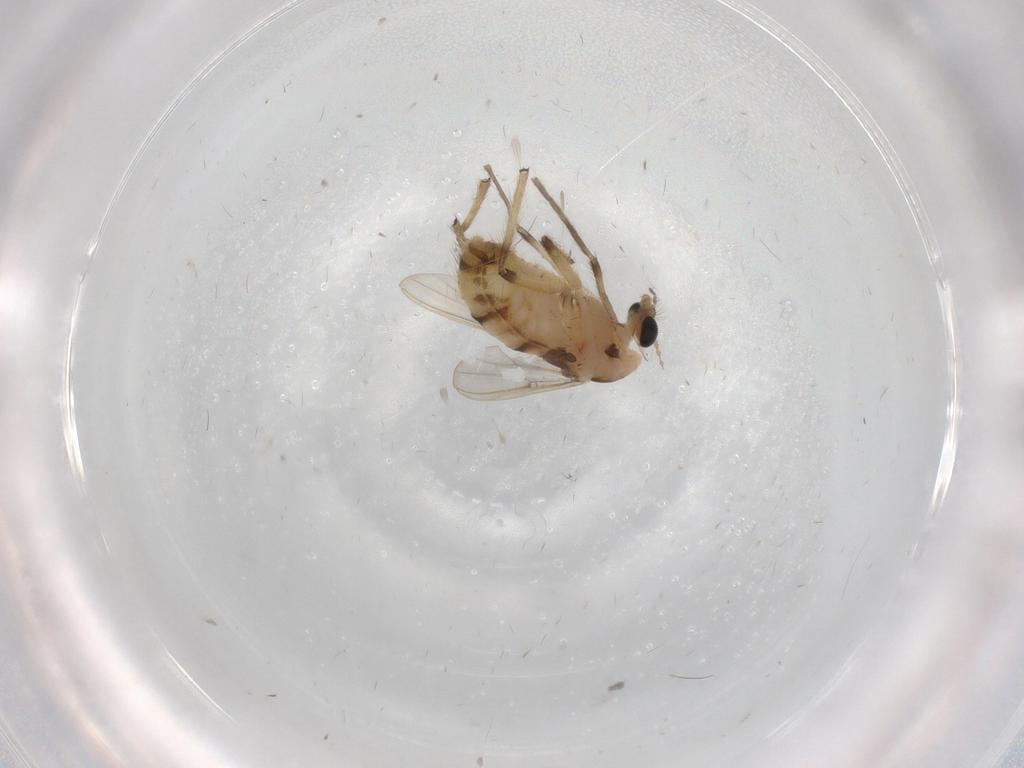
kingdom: Animalia
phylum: Arthropoda
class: Insecta
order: Diptera
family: Chironomidae
